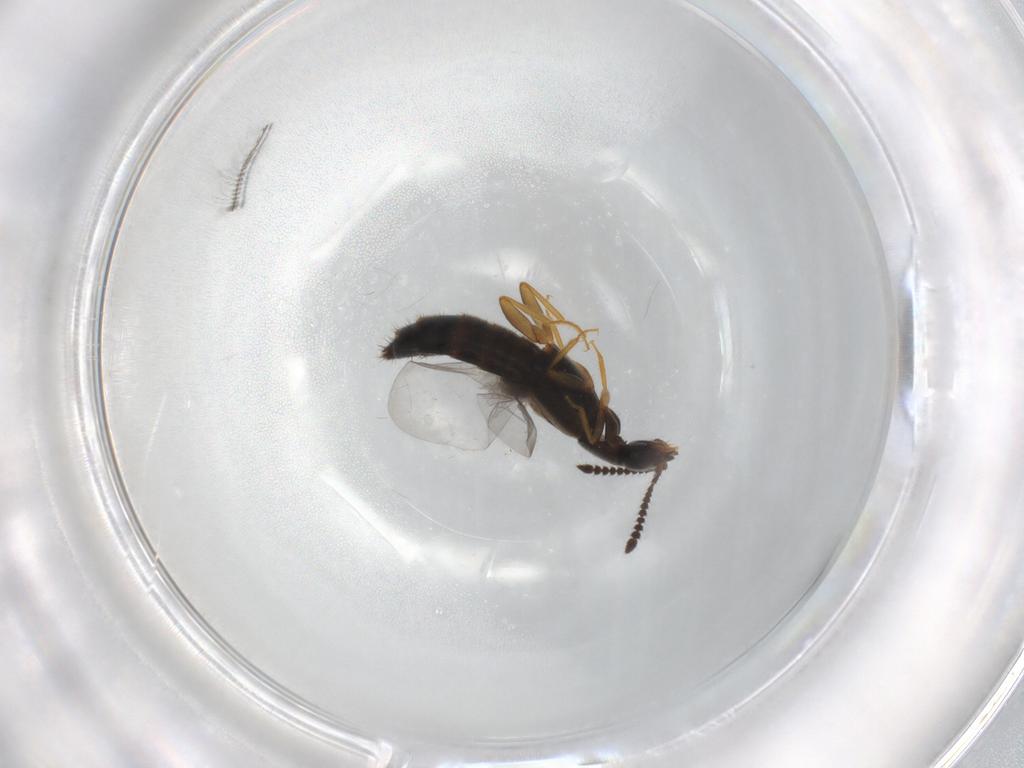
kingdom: Animalia
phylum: Arthropoda
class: Insecta
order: Coleoptera
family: Staphylinidae
